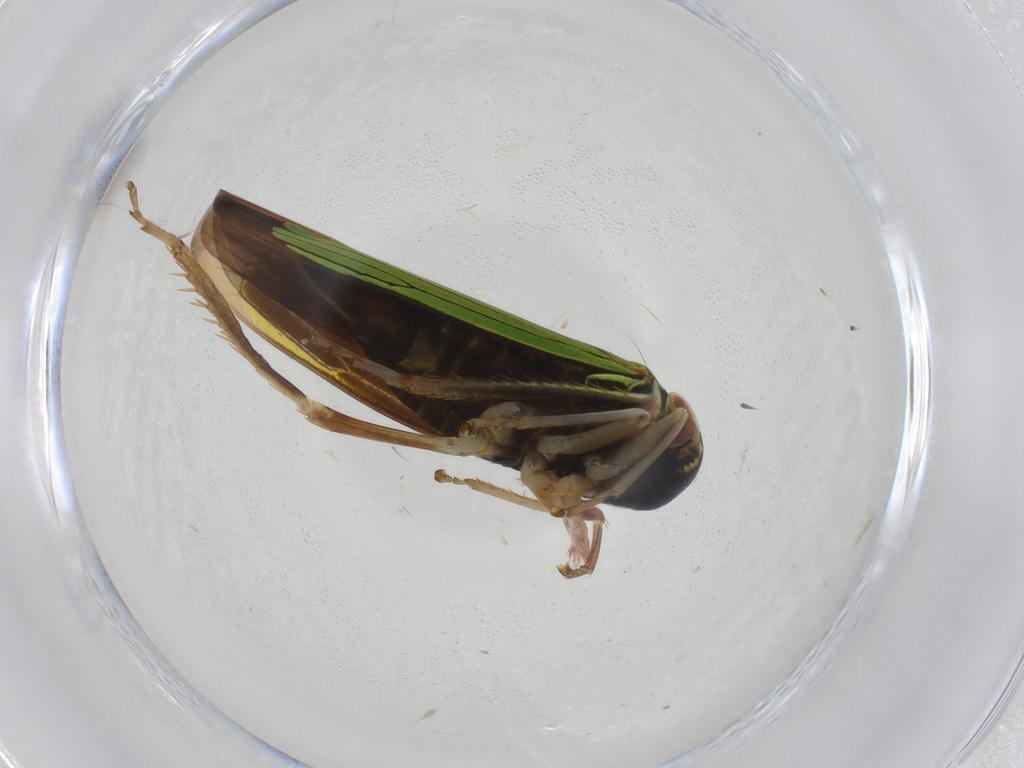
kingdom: Animalia
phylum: Arthropoda
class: Insecta
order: Hemiptera
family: Cicadellidae
